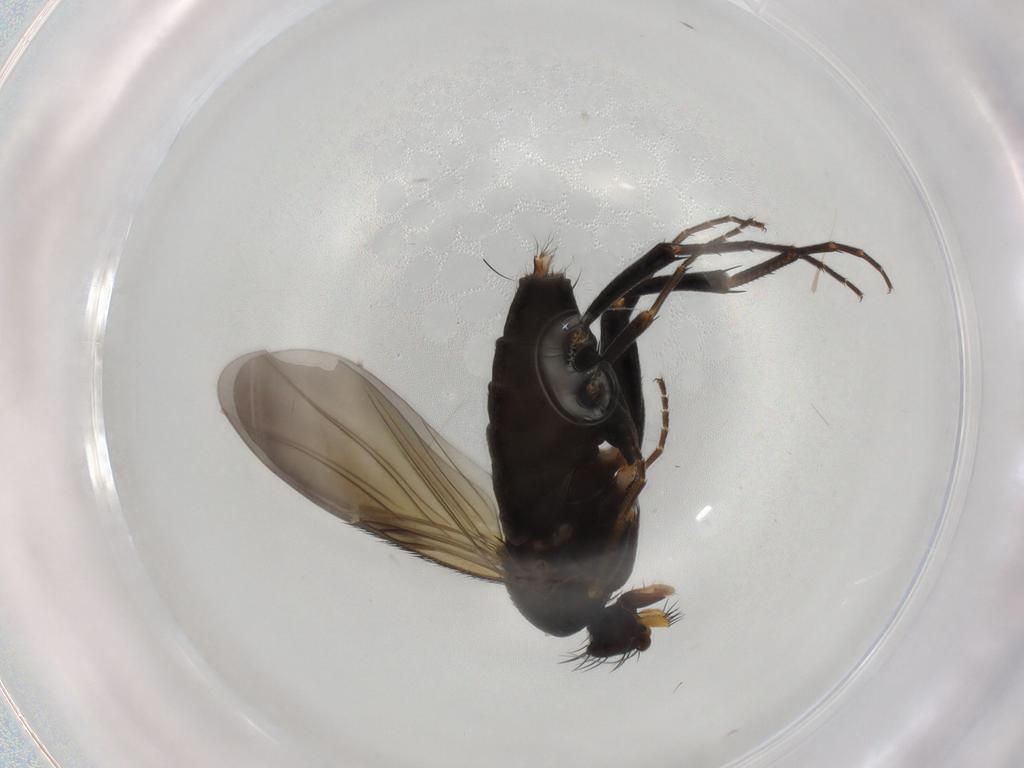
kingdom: Animalia
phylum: Arthropoda
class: Insecta
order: Diptera
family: Phoridae
